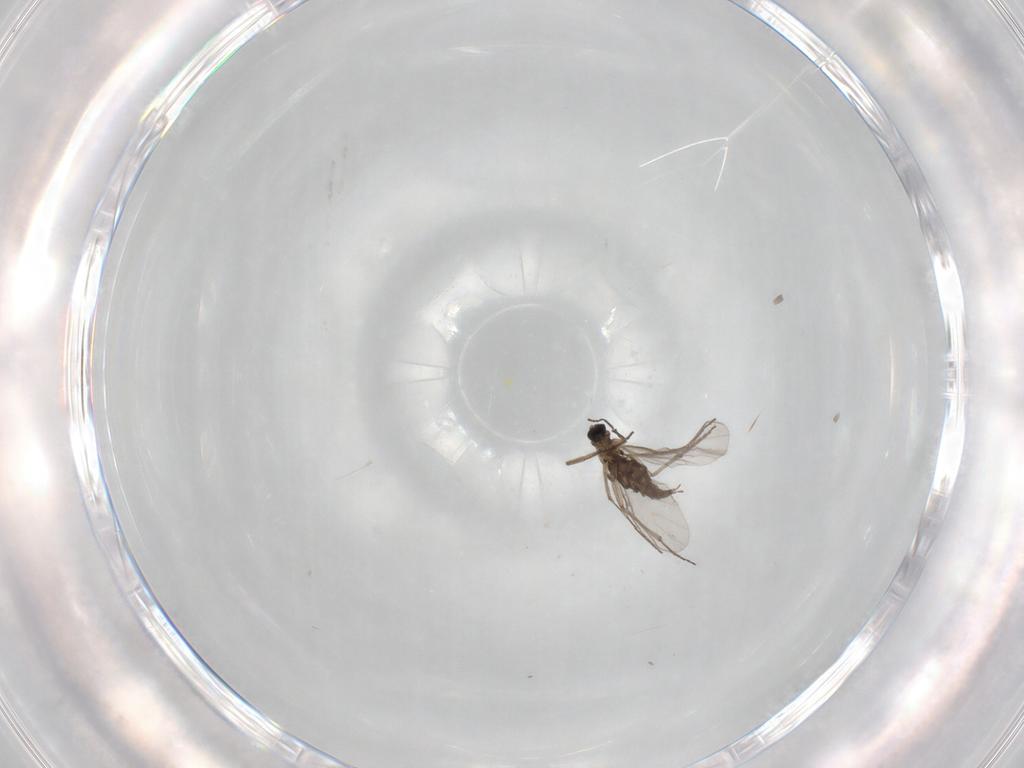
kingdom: Animalia
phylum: Arthropoda
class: Insecta
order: Diptera
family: Sciaridae
